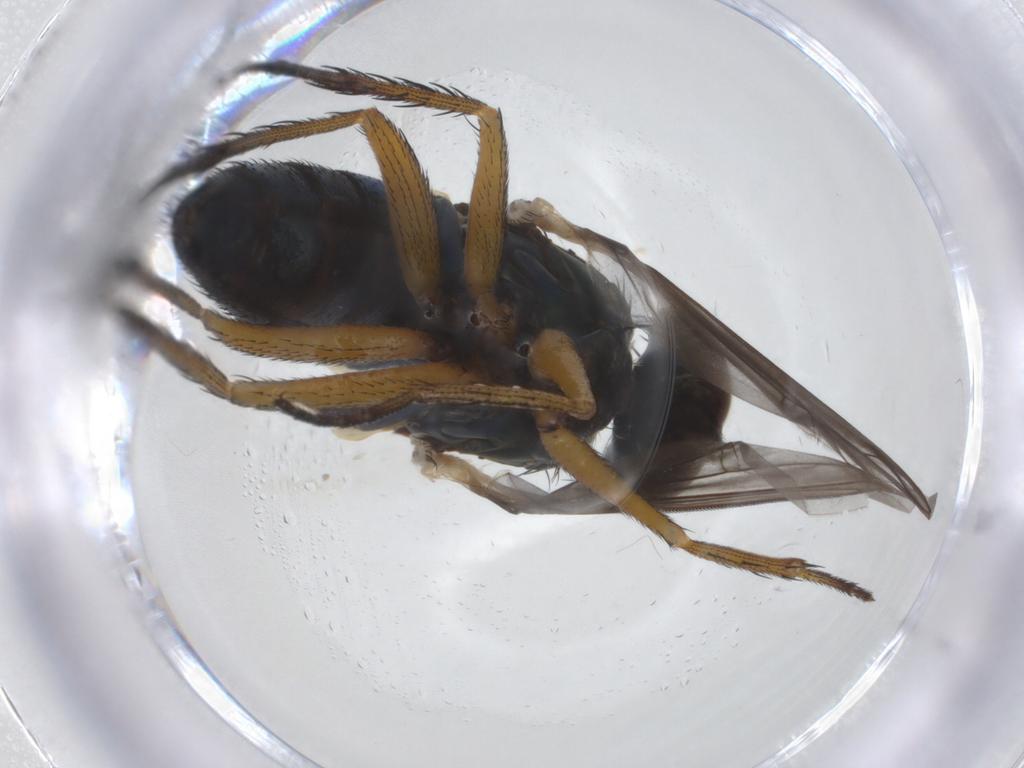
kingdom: Animalia
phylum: Arthropoda
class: Insecta
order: Diptera
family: Dolichopodidae
